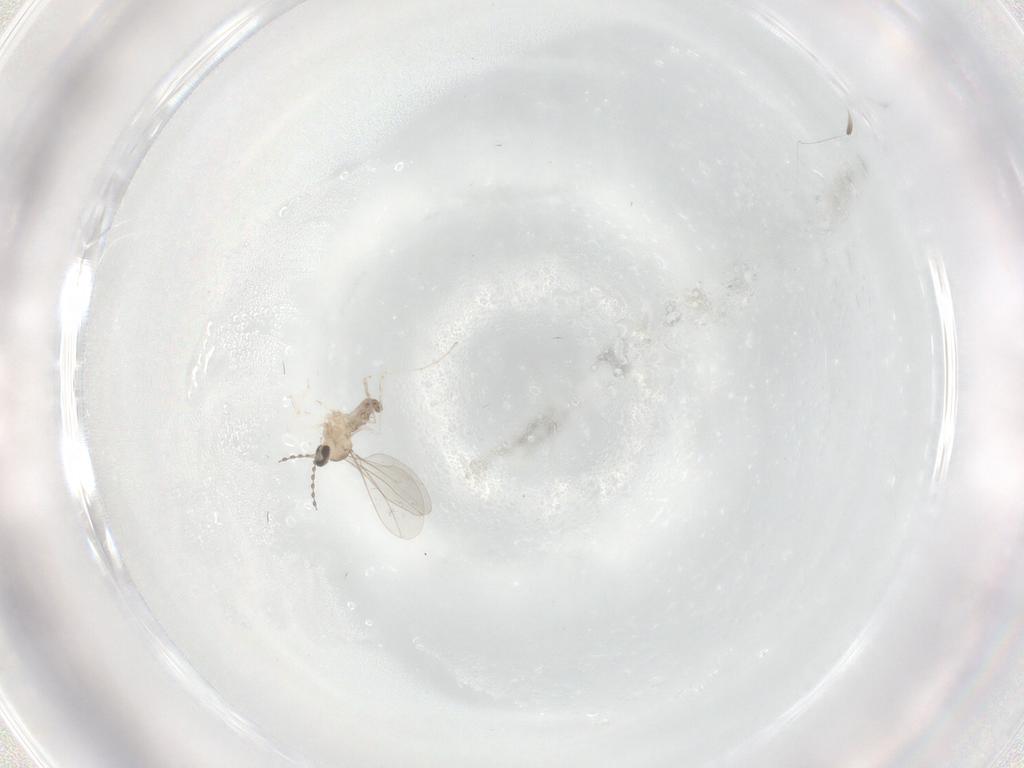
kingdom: Animalia
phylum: Arthropoda
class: Insecta
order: Diptera
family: Cecidomyiidae
